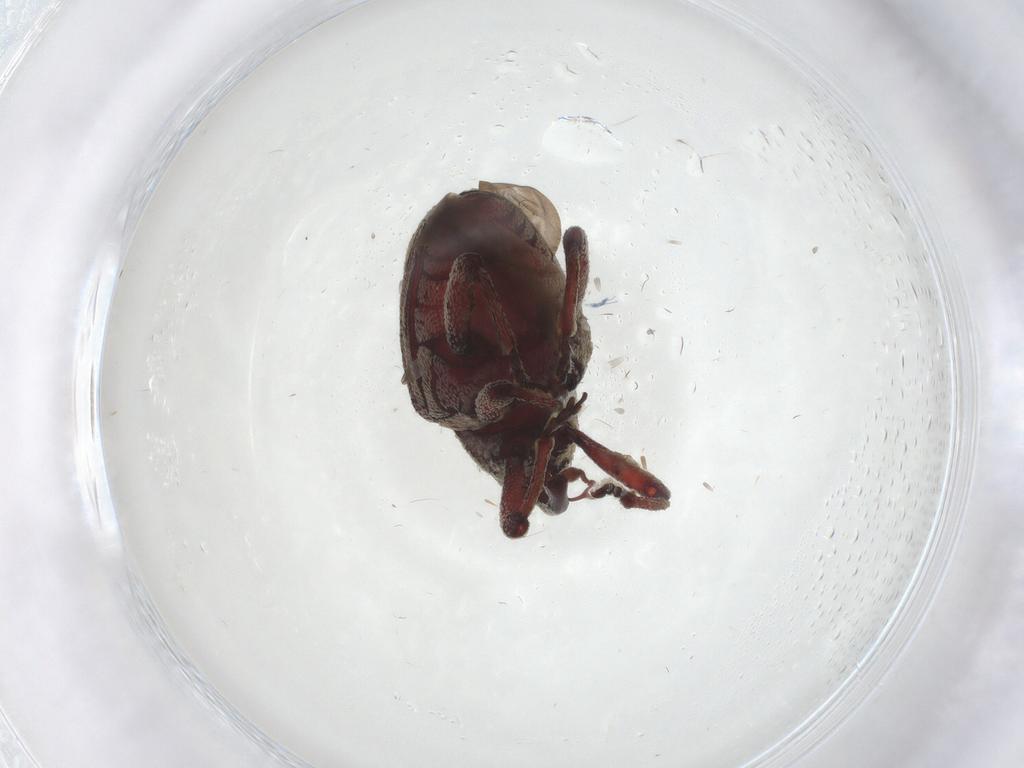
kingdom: Animalia
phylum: Arthropoda
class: Insecta
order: Coleoptera
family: Curculionidae
